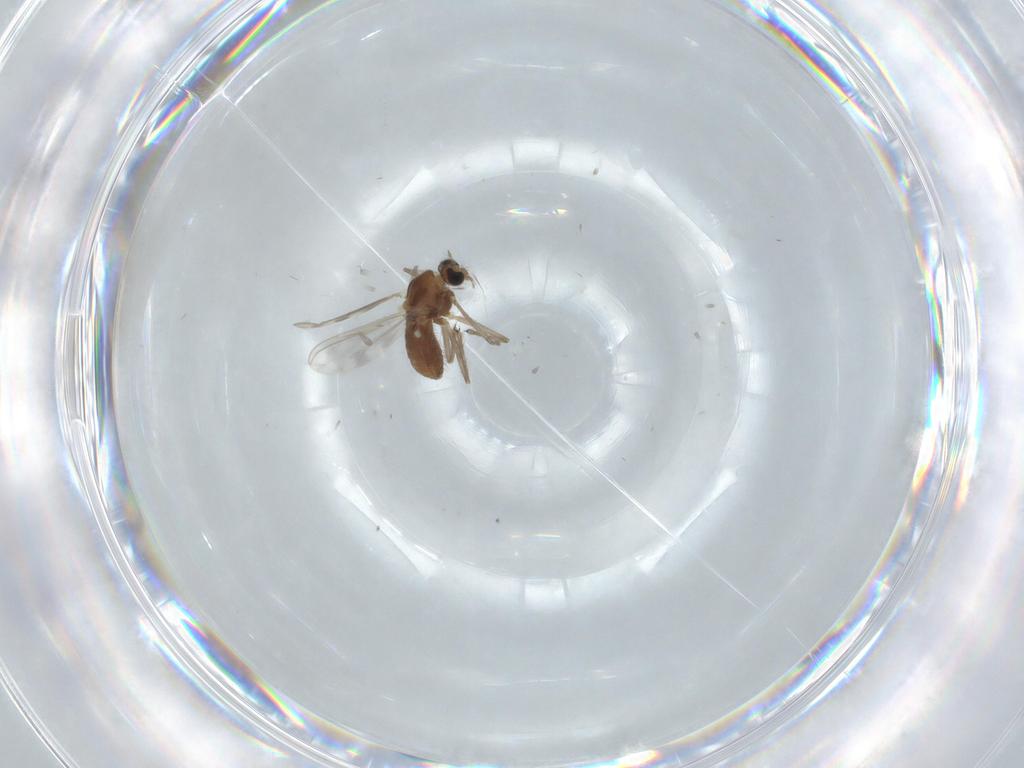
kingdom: Animalia
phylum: Arthropoda
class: Insecta
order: Diptera
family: Chironomidae
